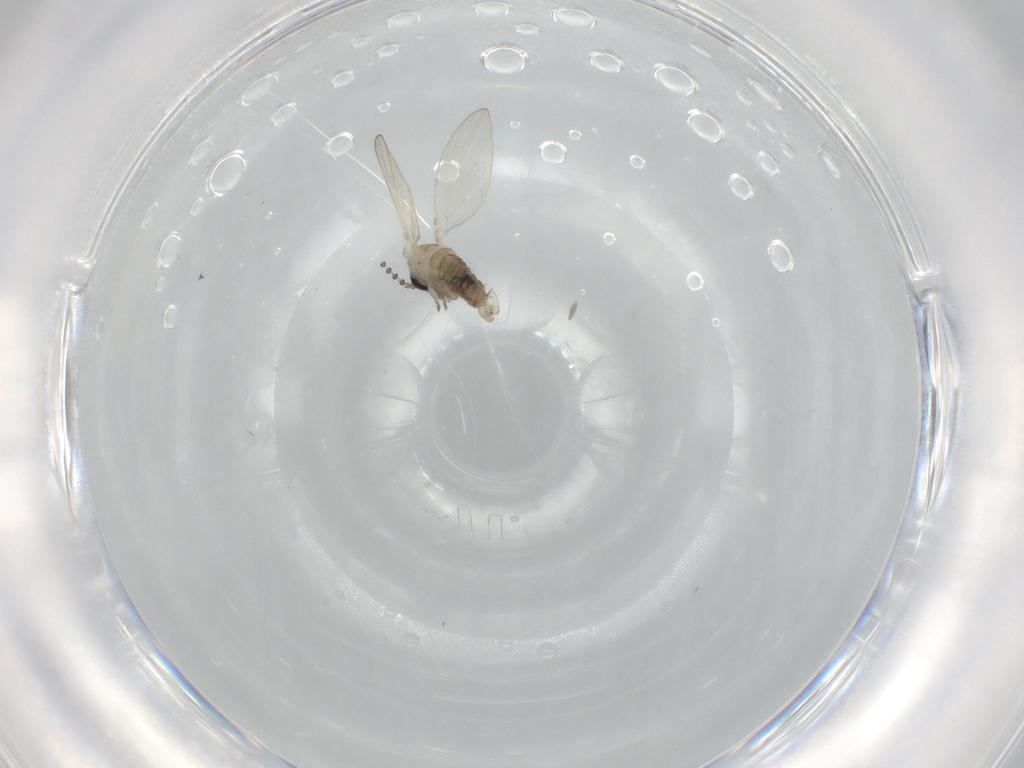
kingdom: Animalia
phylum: Arthropoda
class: Insecta
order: Diptera
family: Psychodidae
